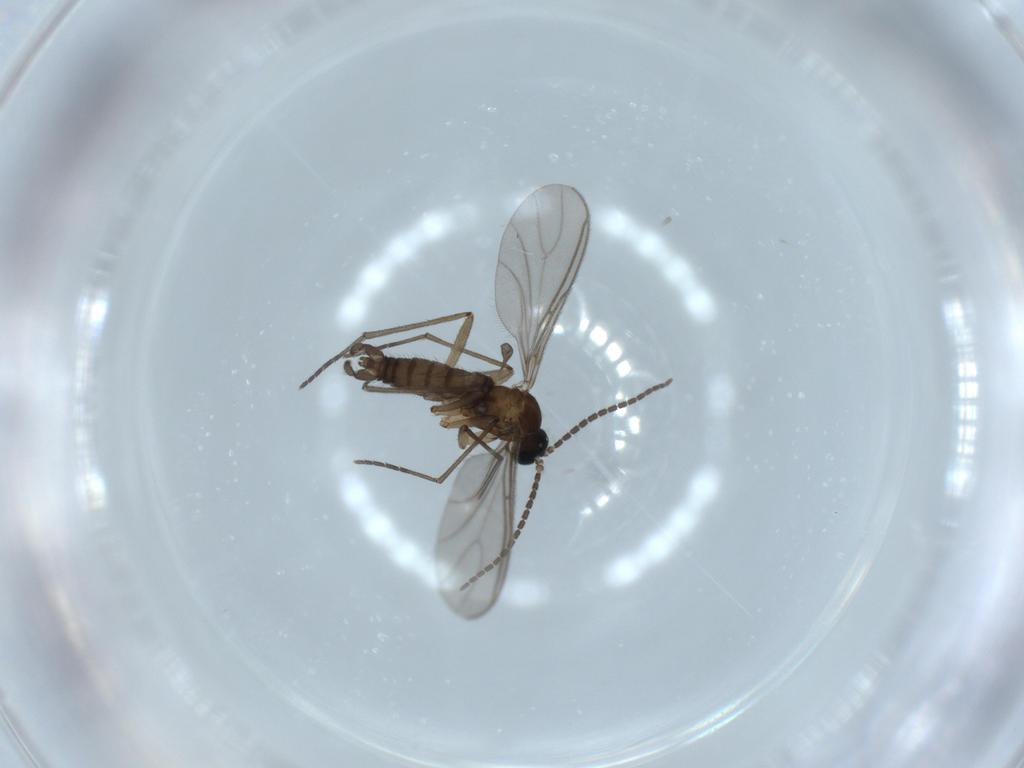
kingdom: Animalia
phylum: Arthropoda
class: Insecta
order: Diptera
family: Sciaridae
